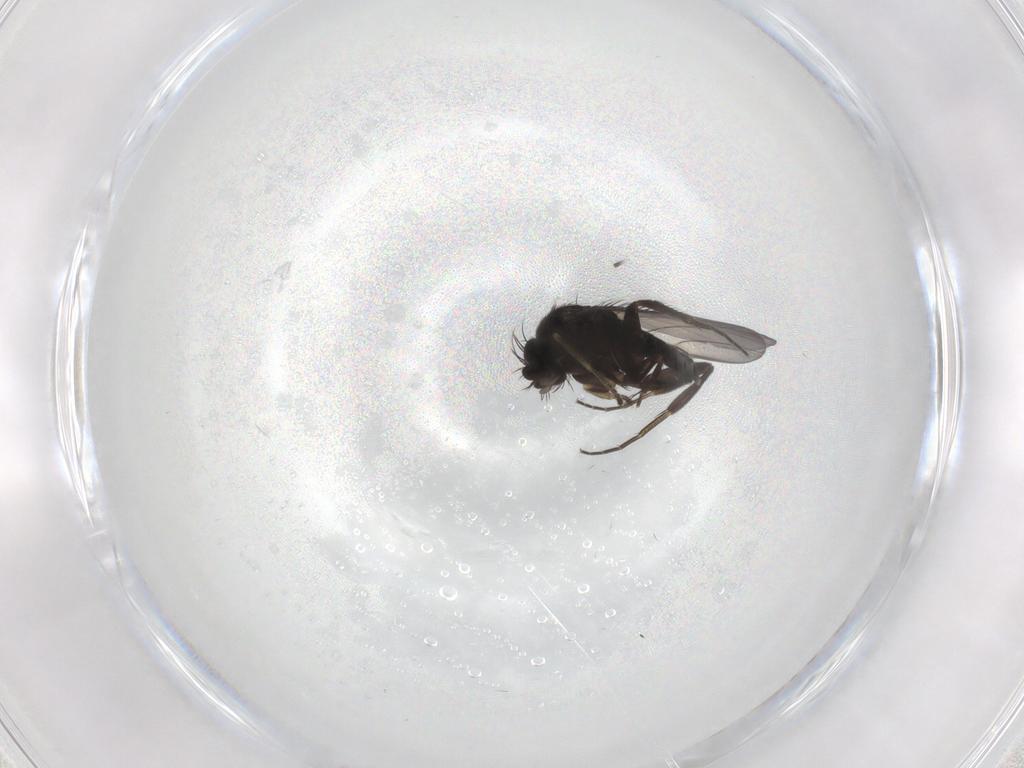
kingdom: Animalia
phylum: Arthropoda
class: Insecta
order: Diptera
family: Phoridae
